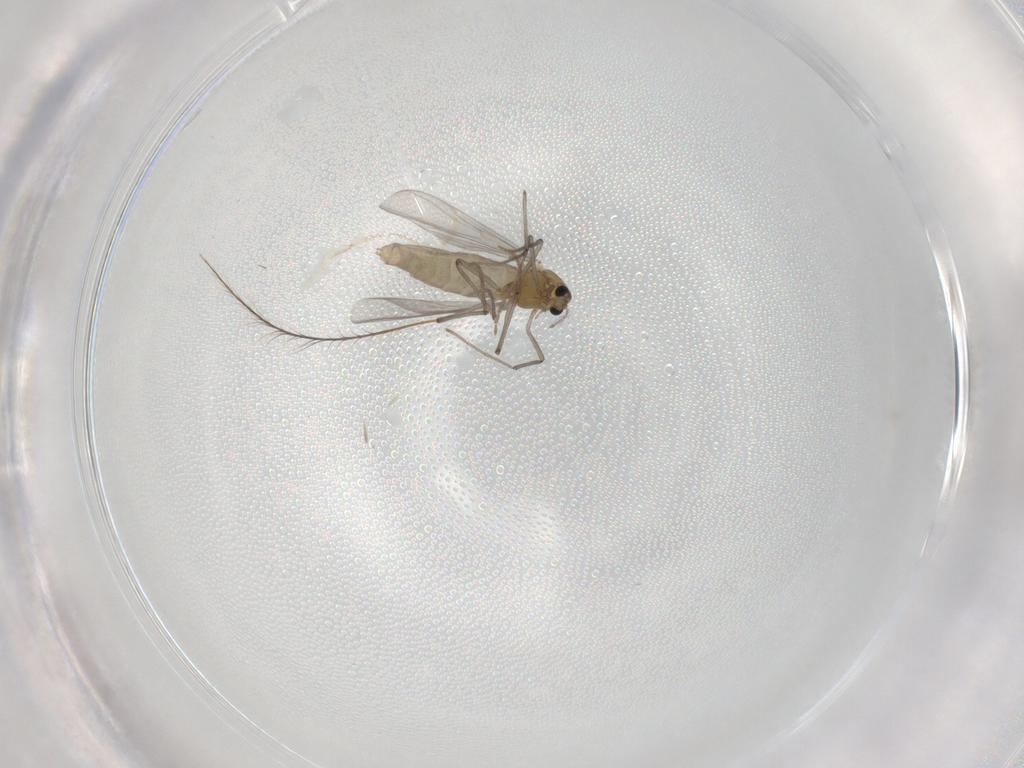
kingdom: Animalia
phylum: Arthropoda
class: Insecta
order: Diptera
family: Chironomidae
